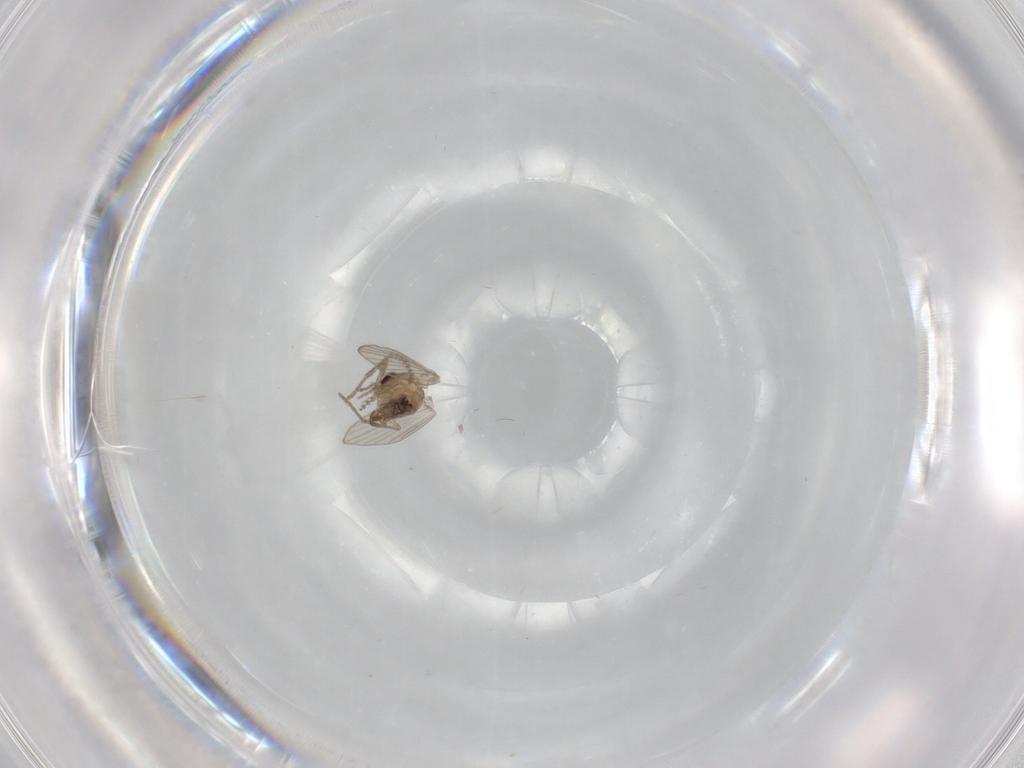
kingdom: Animalia
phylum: Arthropoda
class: Insecta
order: Diptera
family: Psychodidae
